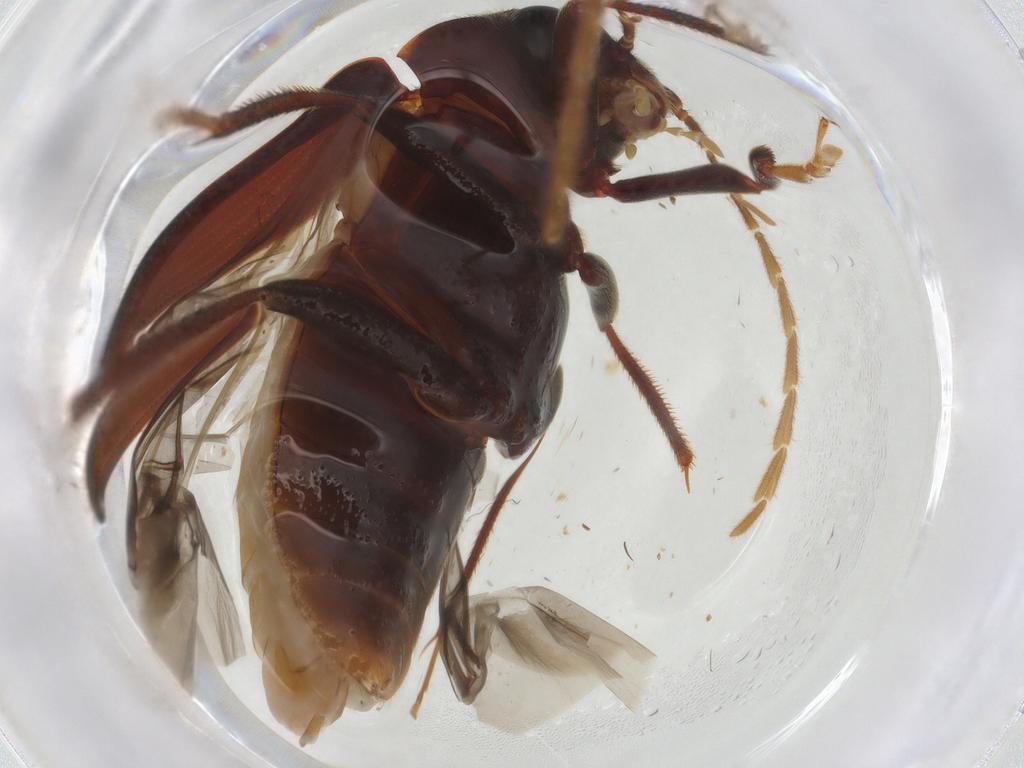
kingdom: Animalia
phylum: Arthropoda
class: Insecta
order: Coleoptera
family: Ptilodactylidae
